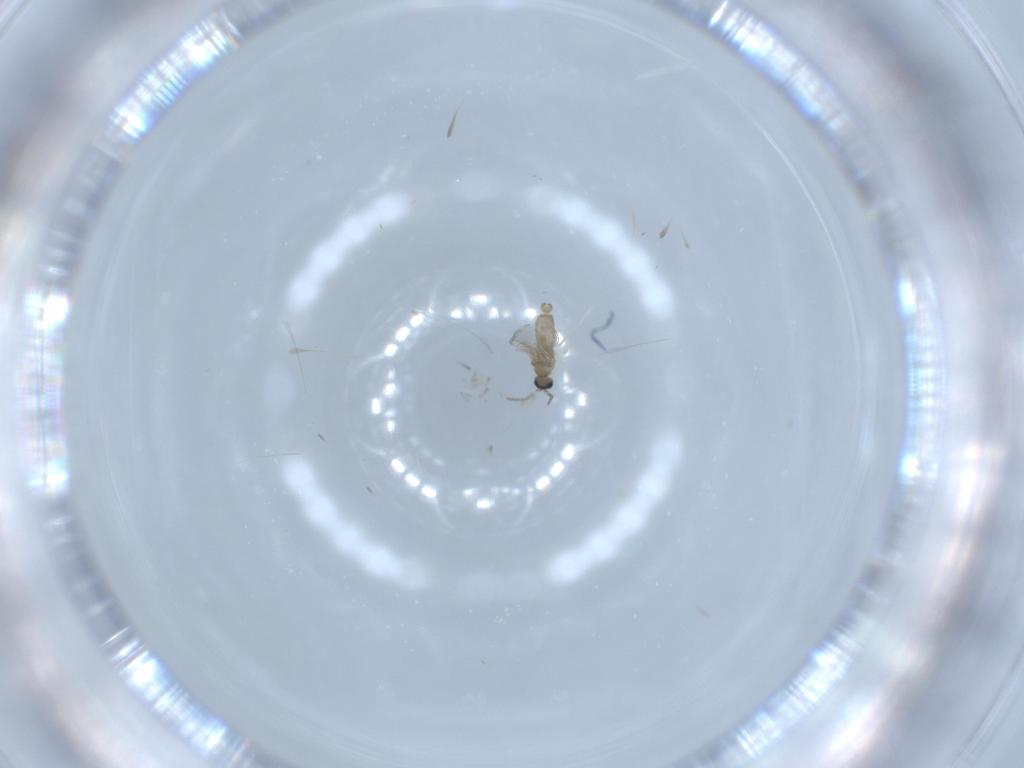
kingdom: Animalia
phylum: Arthropoda
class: Insecta
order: Diptera
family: Cecidomyiidae
